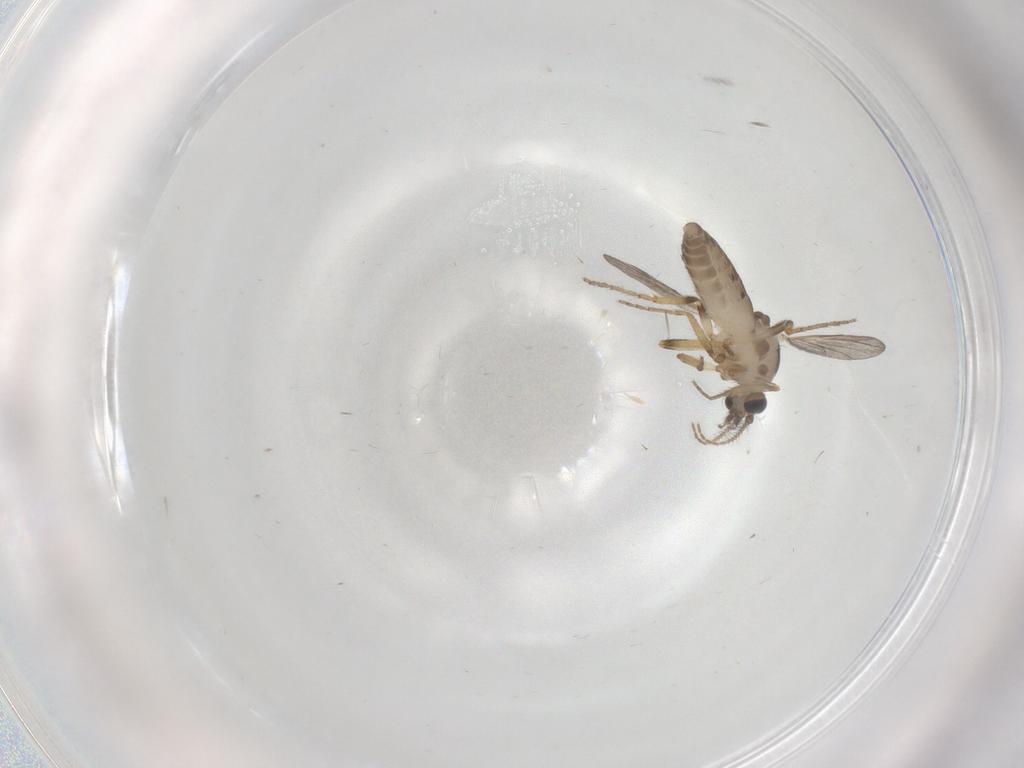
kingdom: Animalia
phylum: Arthropoda
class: Insecta
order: Diptera
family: Ceratopogonidae
